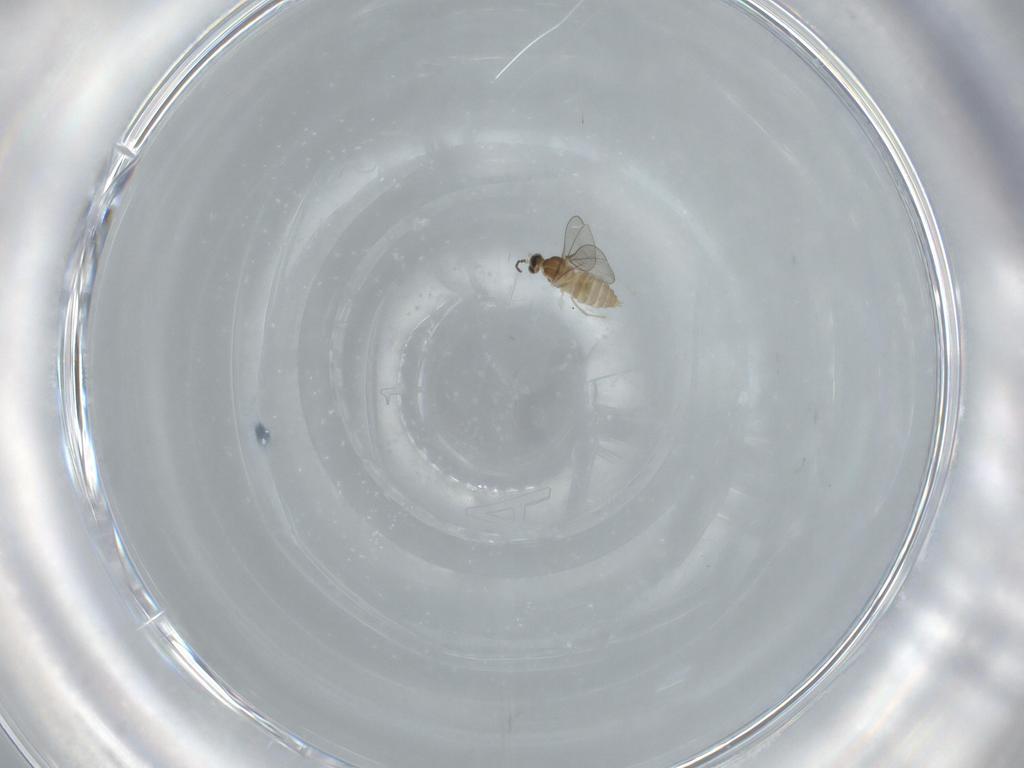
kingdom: Animalia
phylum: Arthropoda
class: Insecta
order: Diptera
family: Cecidomyiidae
